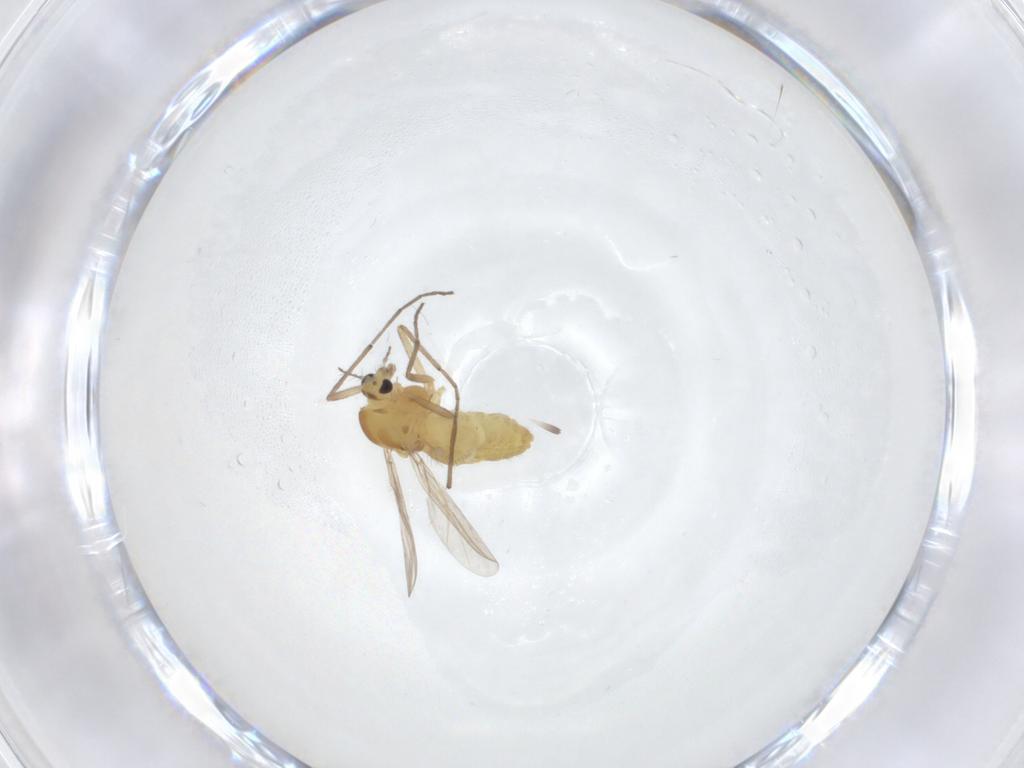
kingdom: Animalia
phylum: Arthropoda
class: Insecta
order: Diptera
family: Chironomidae
